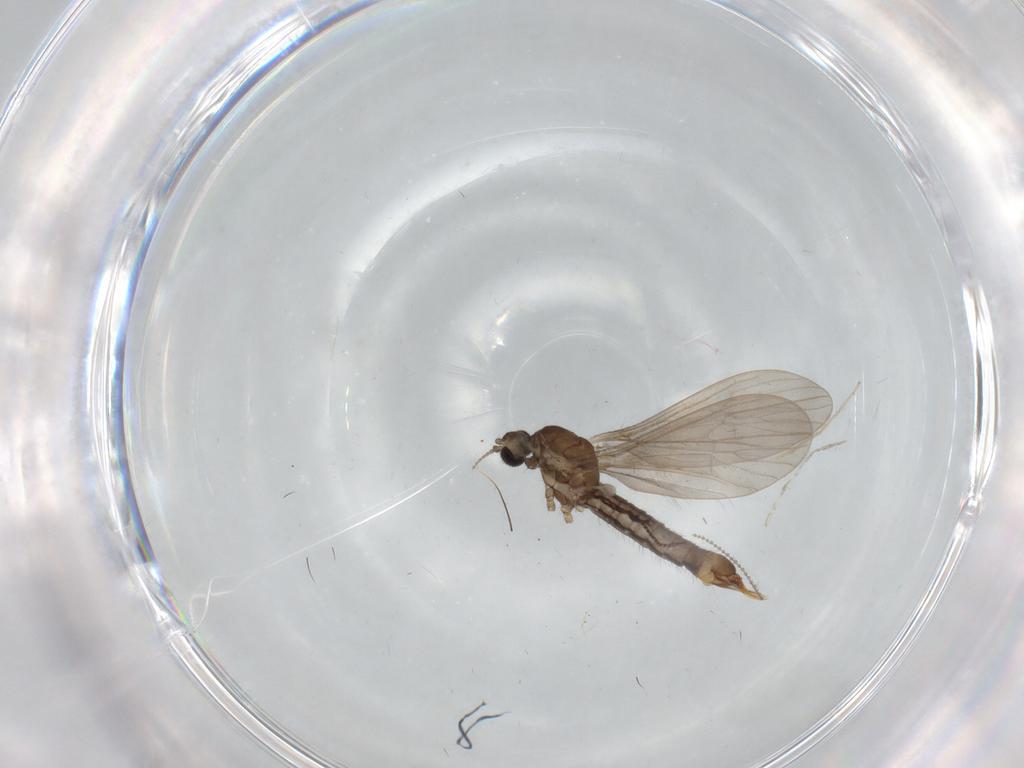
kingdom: Animalia
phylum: Arthropoda
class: Insecta
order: Diptera
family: Limoniidae
